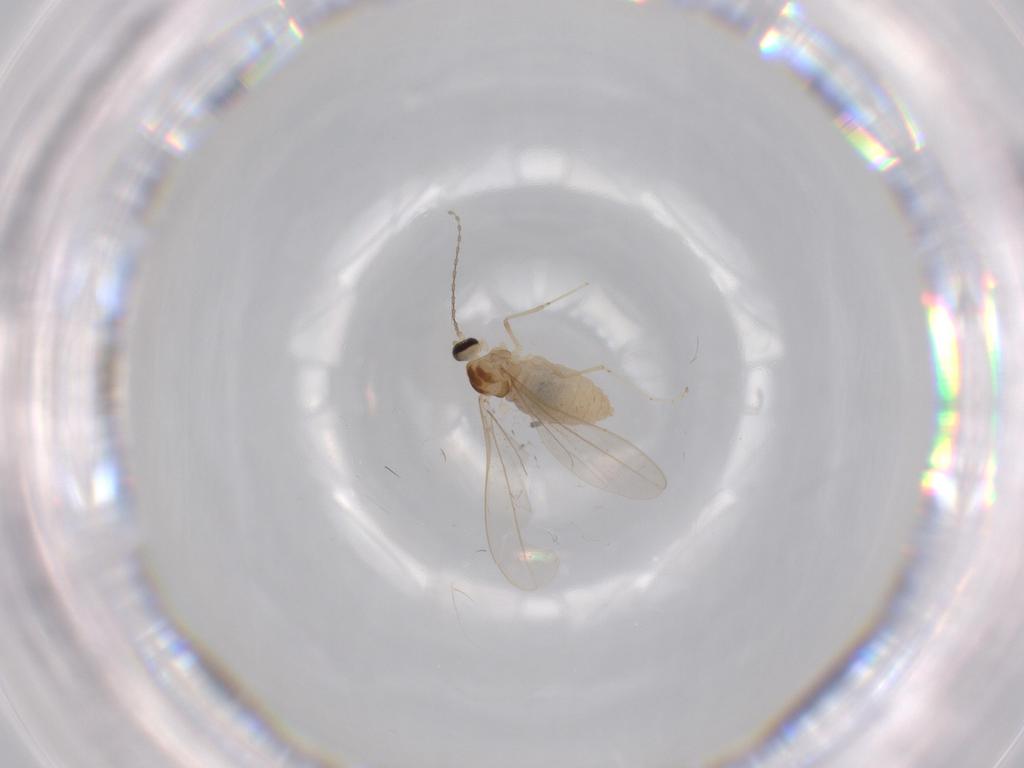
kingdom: Animalia
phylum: Arthropoda
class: Insecta
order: Diptera
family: Cecidomyiidae
